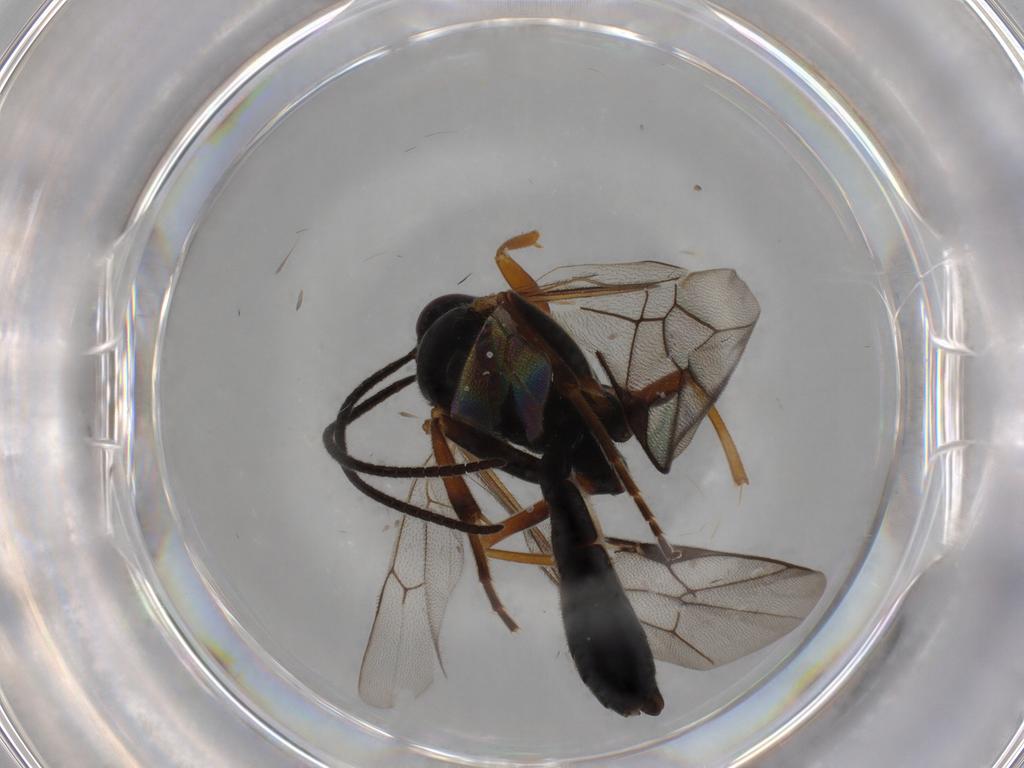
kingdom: Animalia
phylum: Arthropoda
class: Insecta
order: Hymenoptera
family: Ichneumonidae
